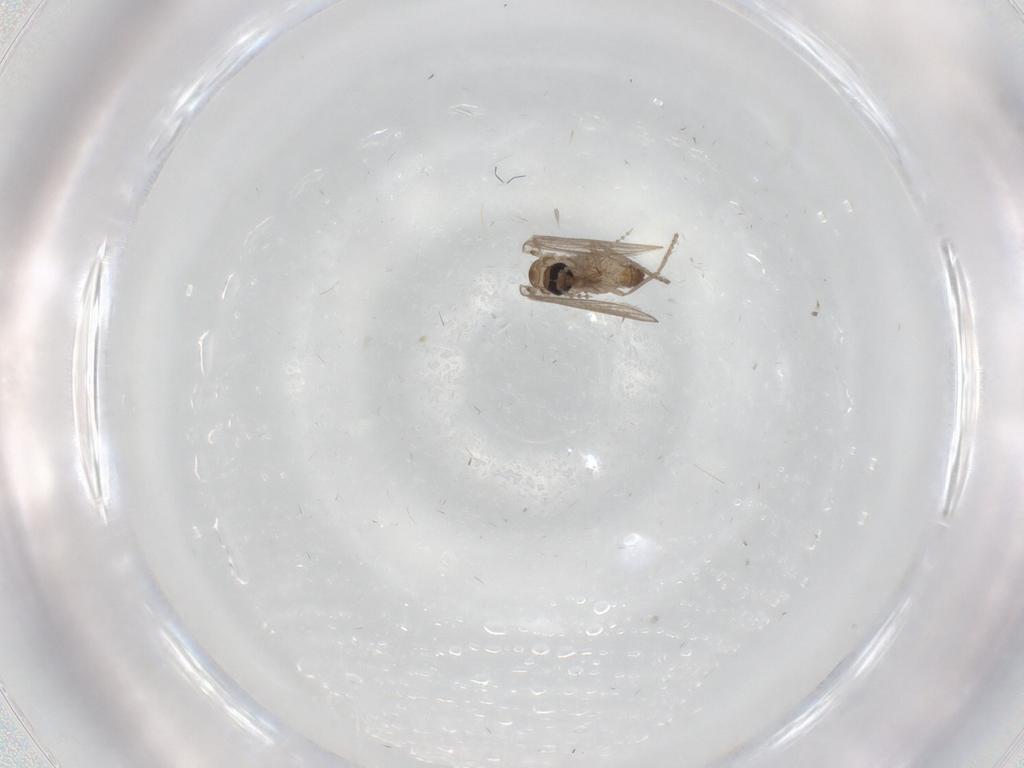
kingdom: Animalia
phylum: Arthropoda
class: Insecta
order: Diptera
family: Psychodidae
